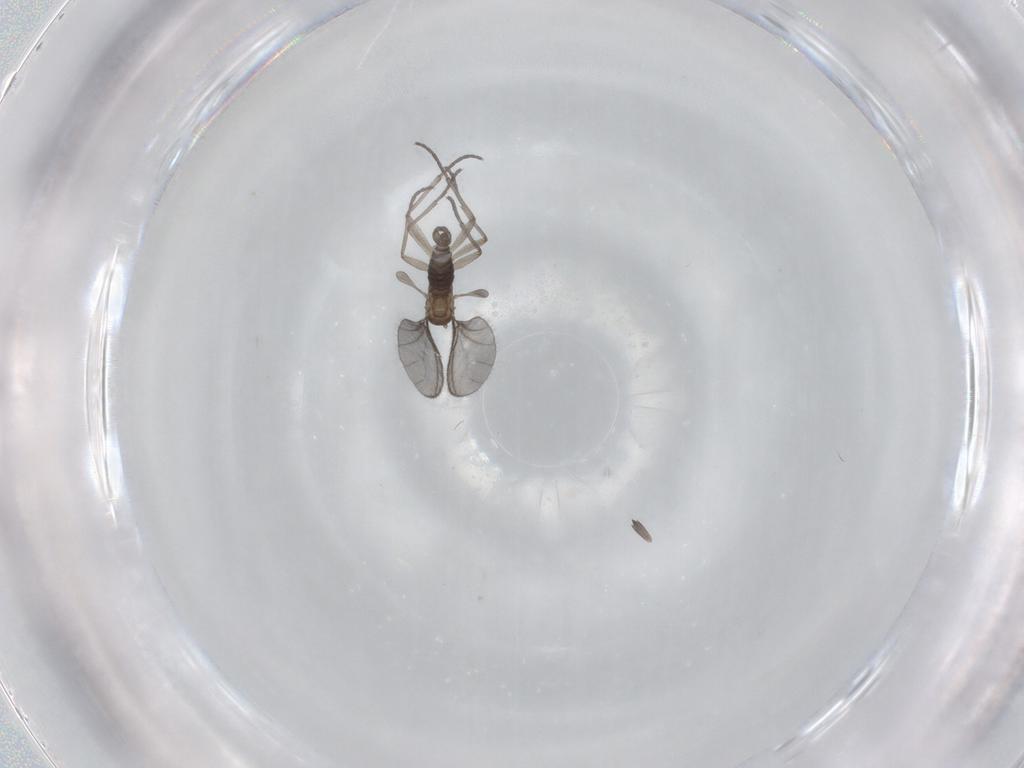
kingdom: Animalia
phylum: Arthropoda
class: Insecta
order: Diptera
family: Sciaridae
